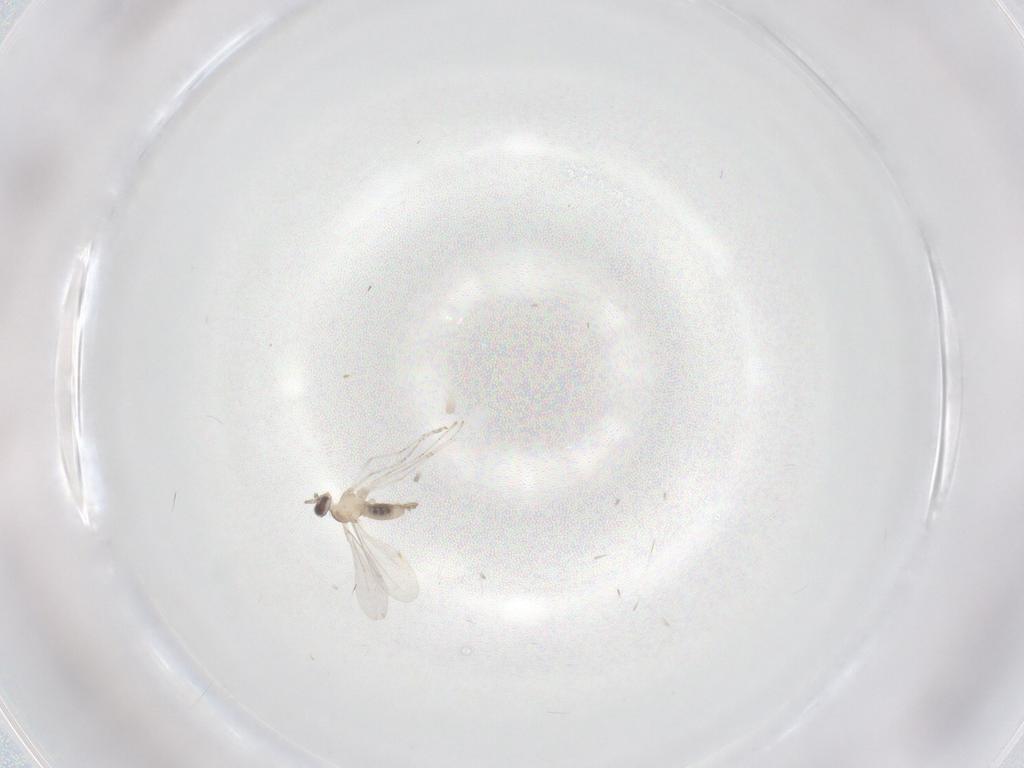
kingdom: Animalia
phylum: Arthropoda
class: Insecta
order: Diptera
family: Cecidomyiidae
